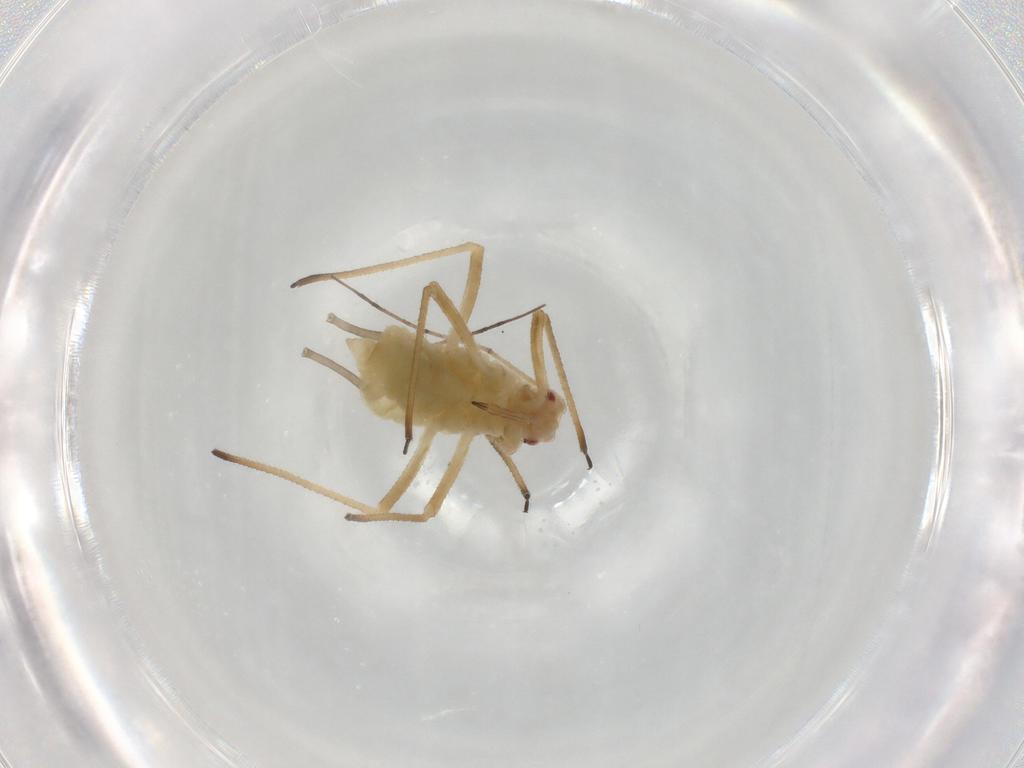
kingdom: Animalia
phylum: Arthropoda
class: Insecta
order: Hemiptera
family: Aphididae
